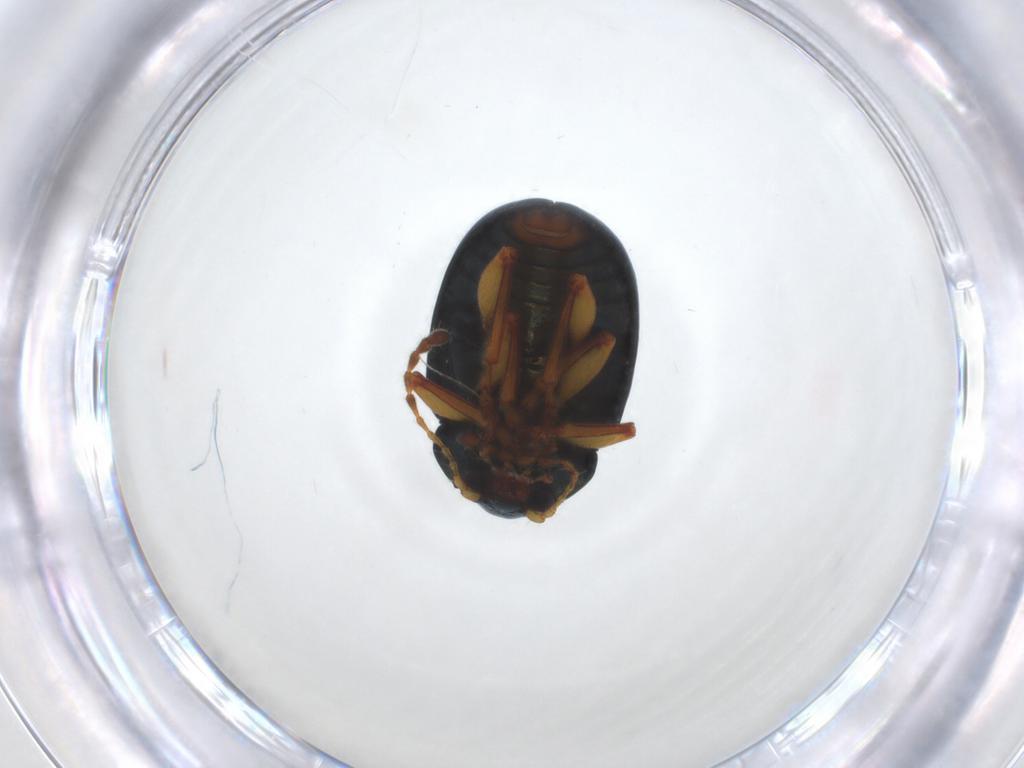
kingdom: Animalia
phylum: Arthropoda
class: Insecta
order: Coleoptera
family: Chrysomelidae
